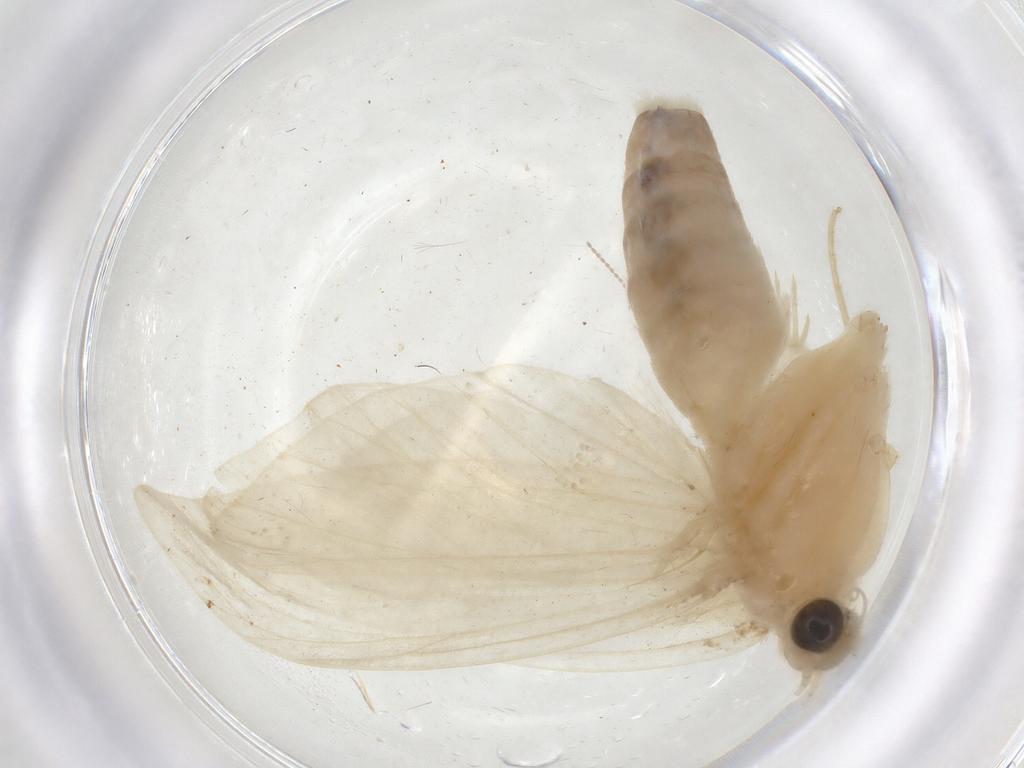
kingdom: Animalia
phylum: Arthropoda
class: Insecta
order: Lepidoptera
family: Crambidae
